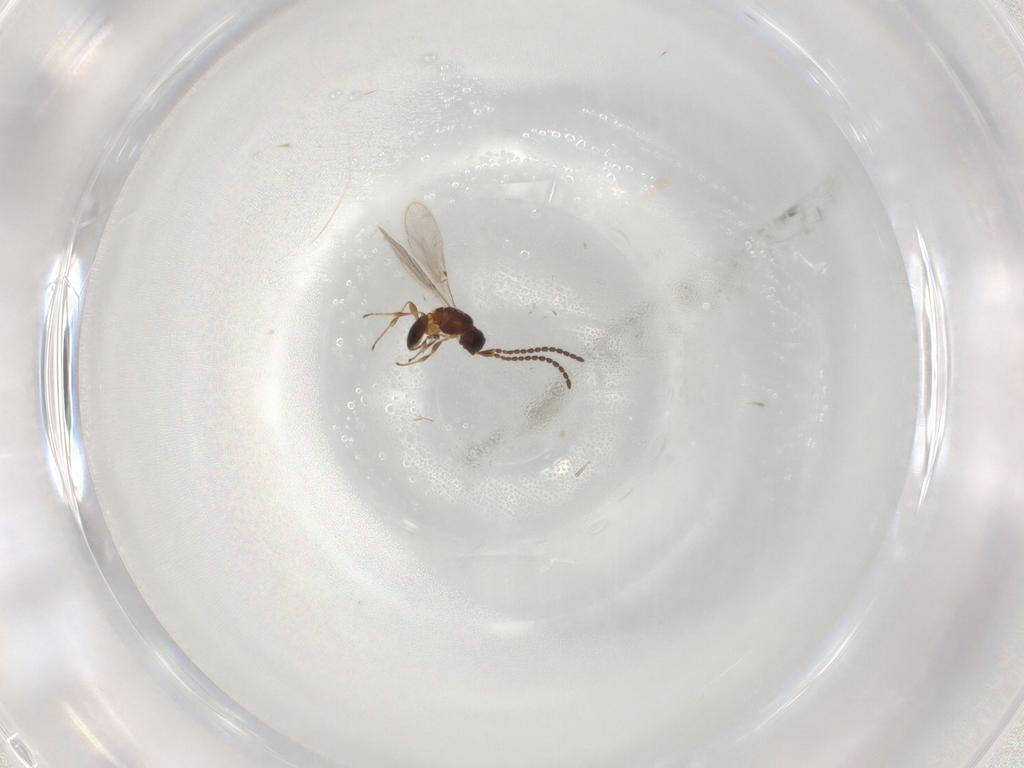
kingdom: Animalia
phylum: Arthropoda
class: Insecta
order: Hymenoptera
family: Diapriidae
